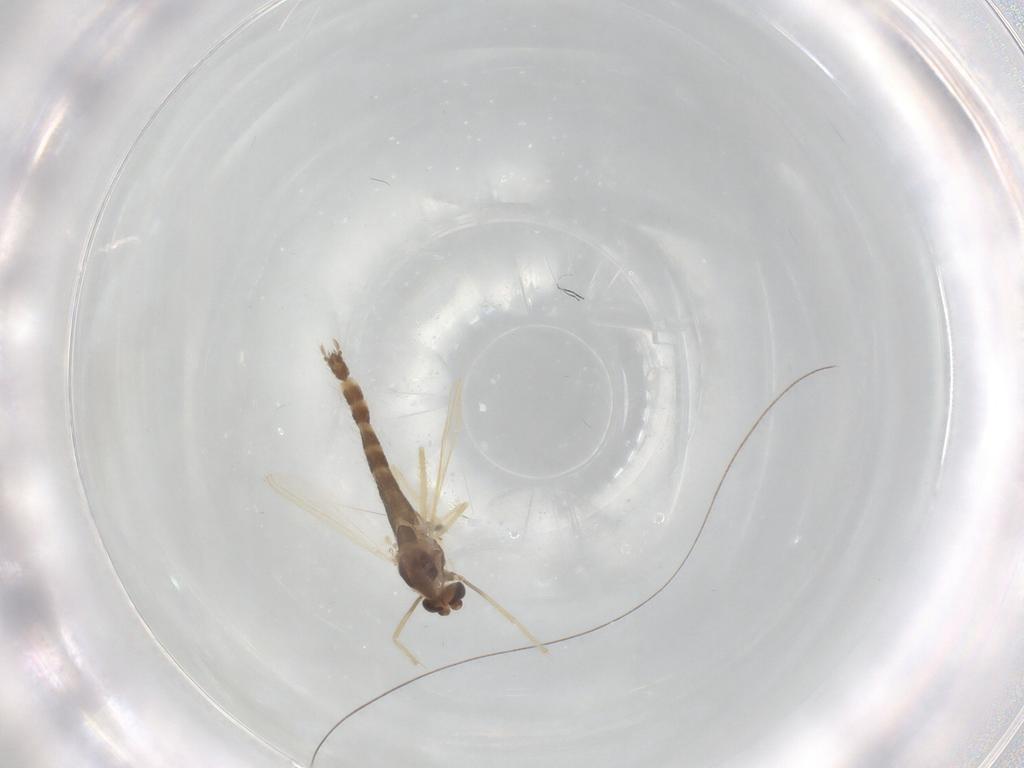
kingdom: Animalia
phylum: Arthropoda
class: Insecta
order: Diptera
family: Chironomidae
